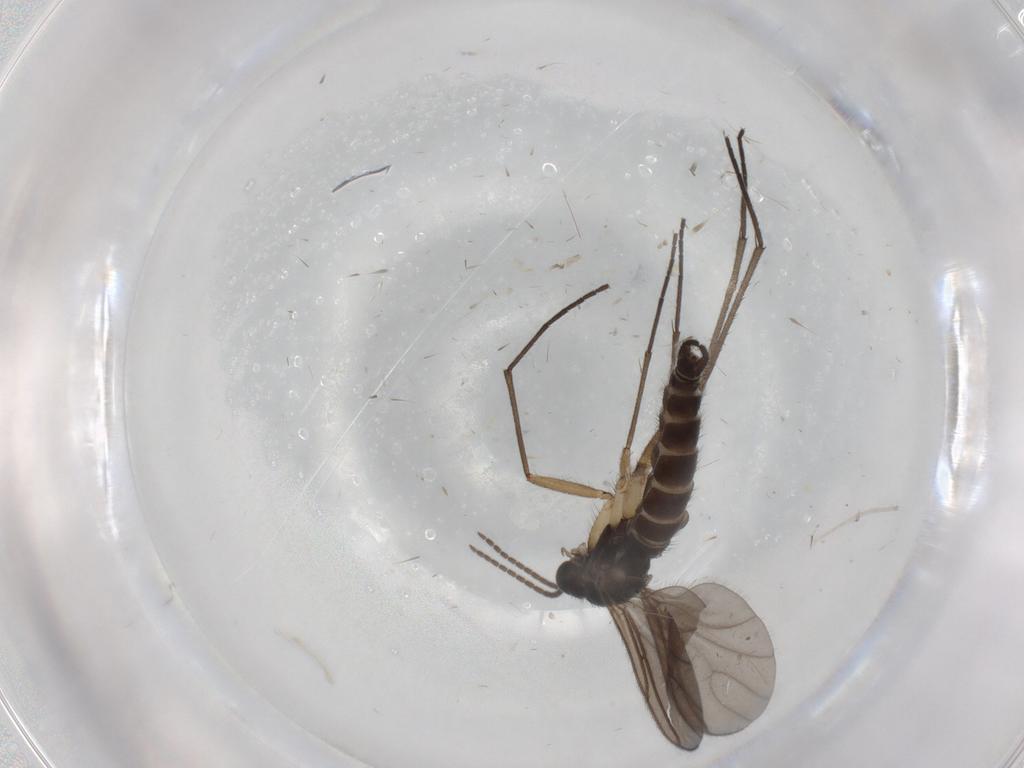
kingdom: Animalia
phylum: Arthropoda
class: Insecta
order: Diptera
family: Sciaridae
